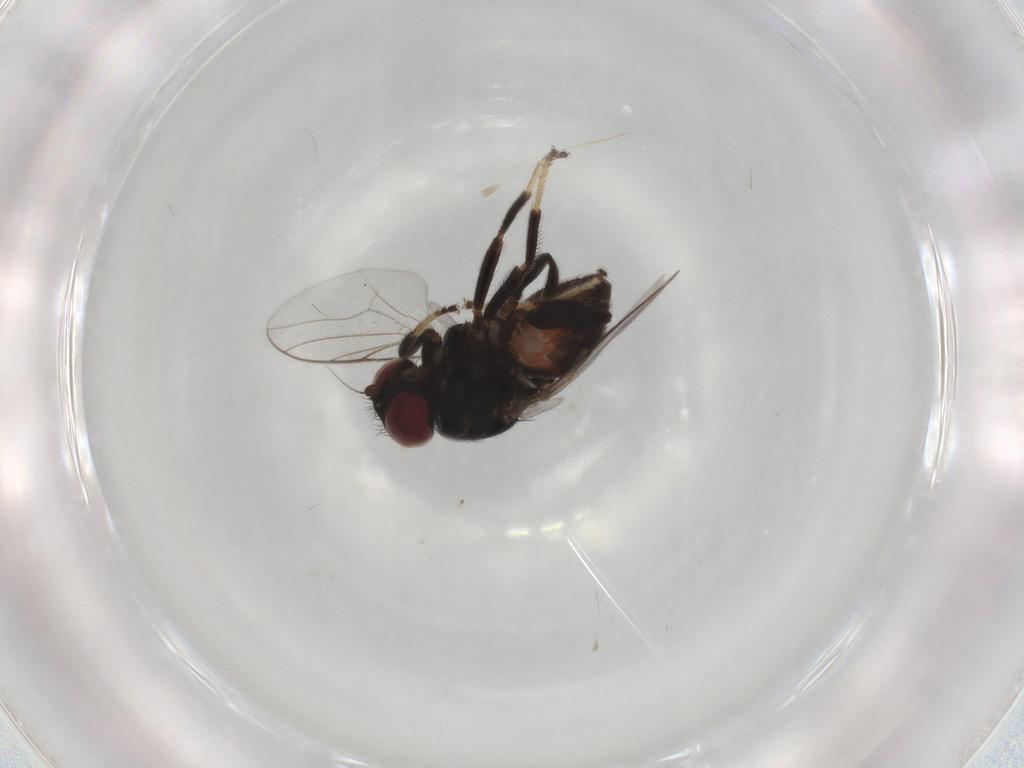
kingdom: Animalia
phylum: Arthropoda
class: Insecta
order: Diptera
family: Chloropidae
